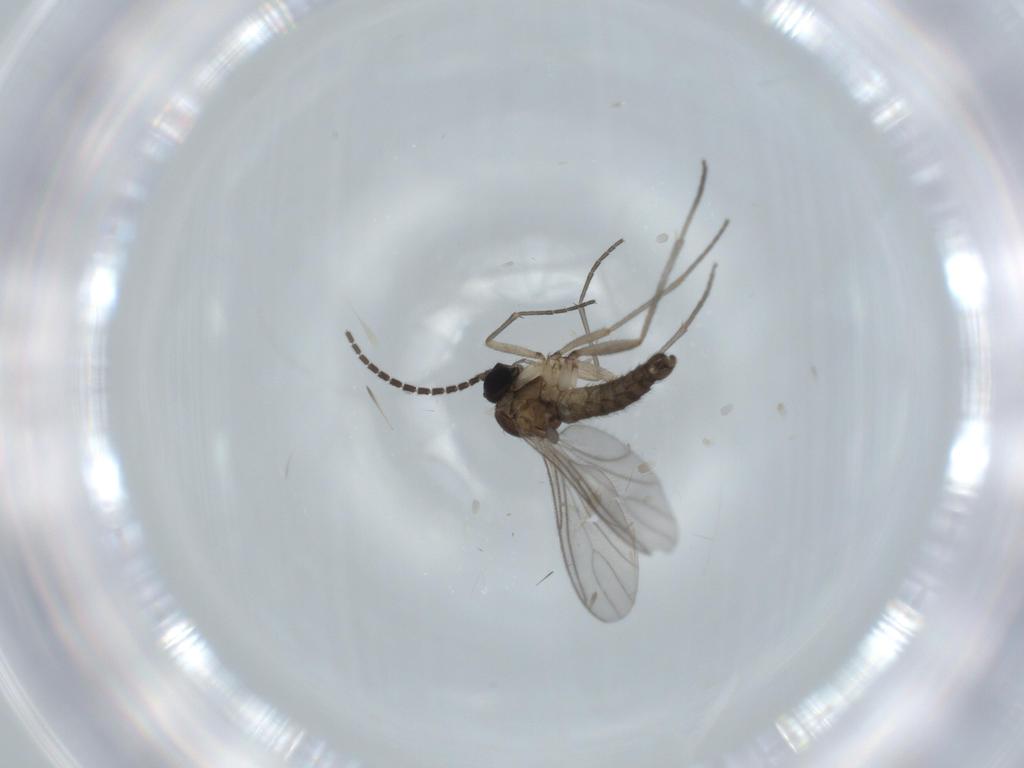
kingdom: Animalia
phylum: Arthropoda
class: Insecta
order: Diptera
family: Sciaridae
